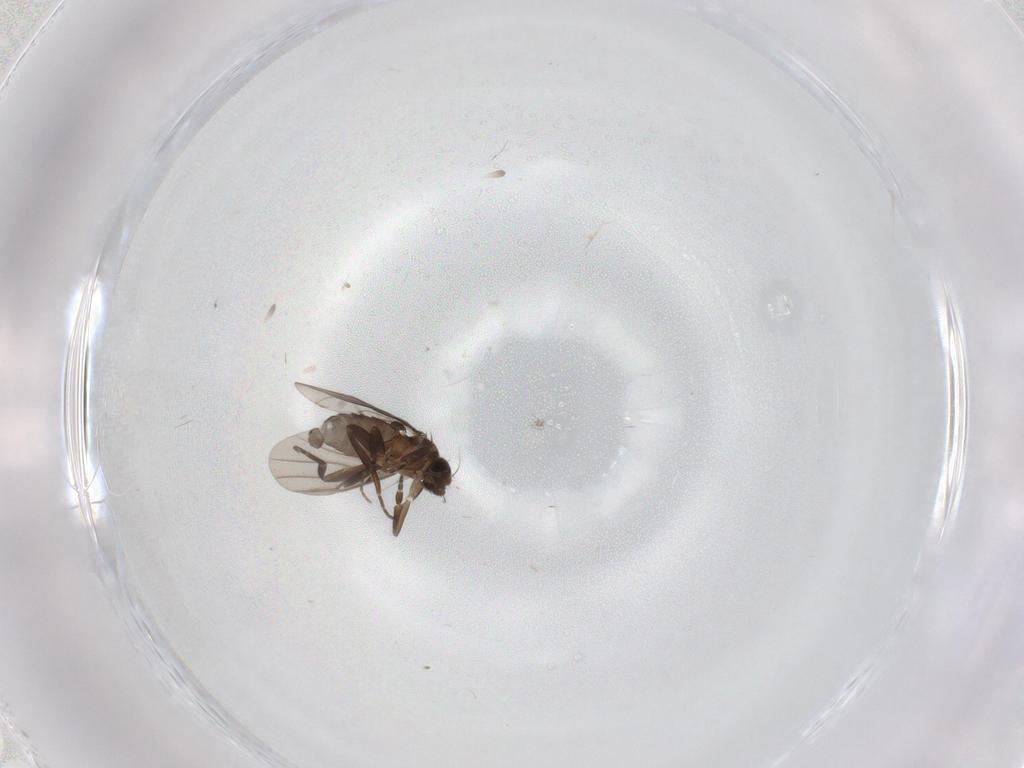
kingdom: Animalia
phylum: Arthropoda
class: Insecta
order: Diptera
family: Phoridae
